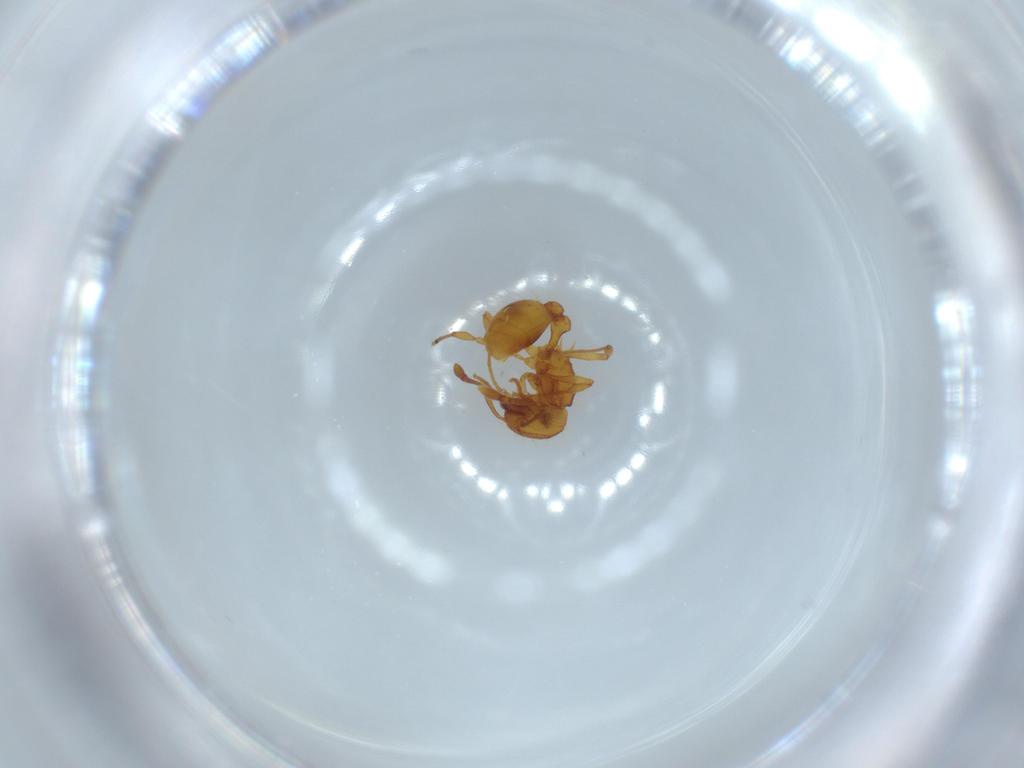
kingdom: Animalia
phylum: Arthropoda
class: Insecta
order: Hymenoptera
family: Formicidae
